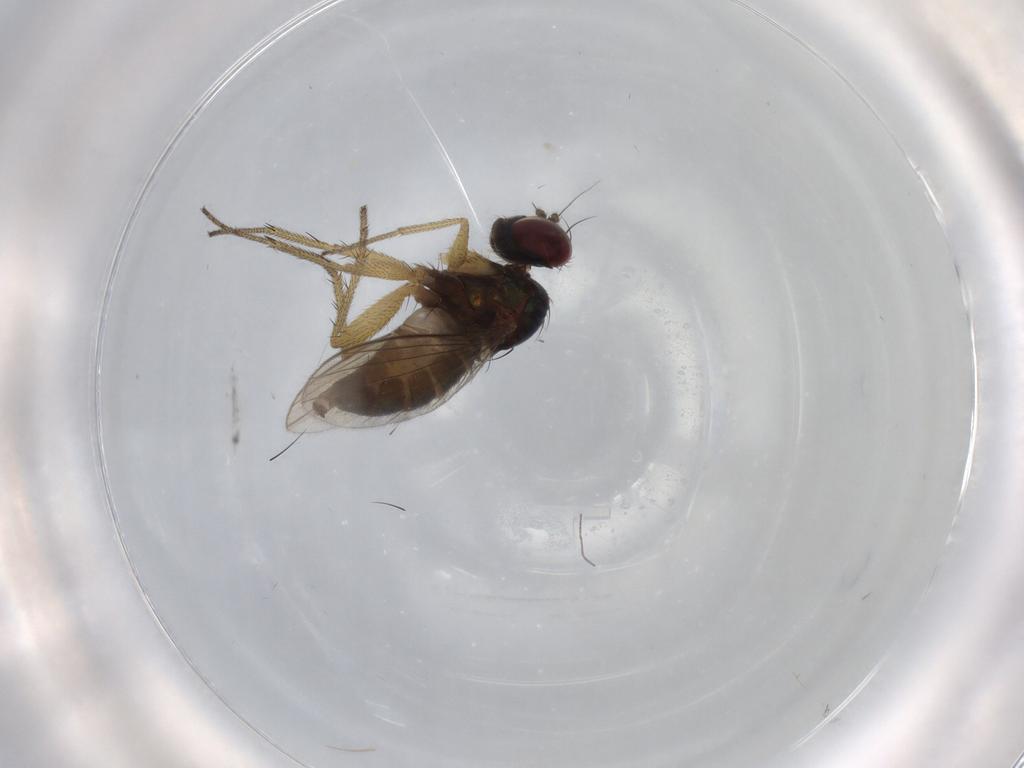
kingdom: Animalia
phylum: Arthropoda
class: Insecta
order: Diptera
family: Dolichopodidae
